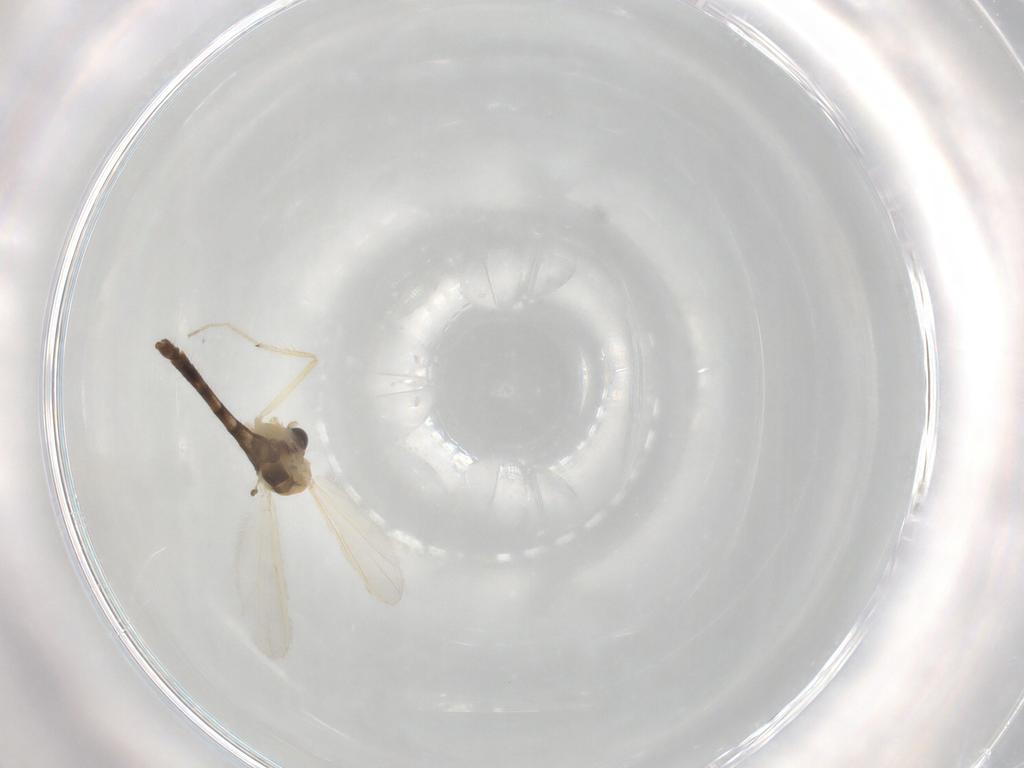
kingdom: Animalia
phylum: Arthropoda
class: Insecta
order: Diptera
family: Chironomidae
